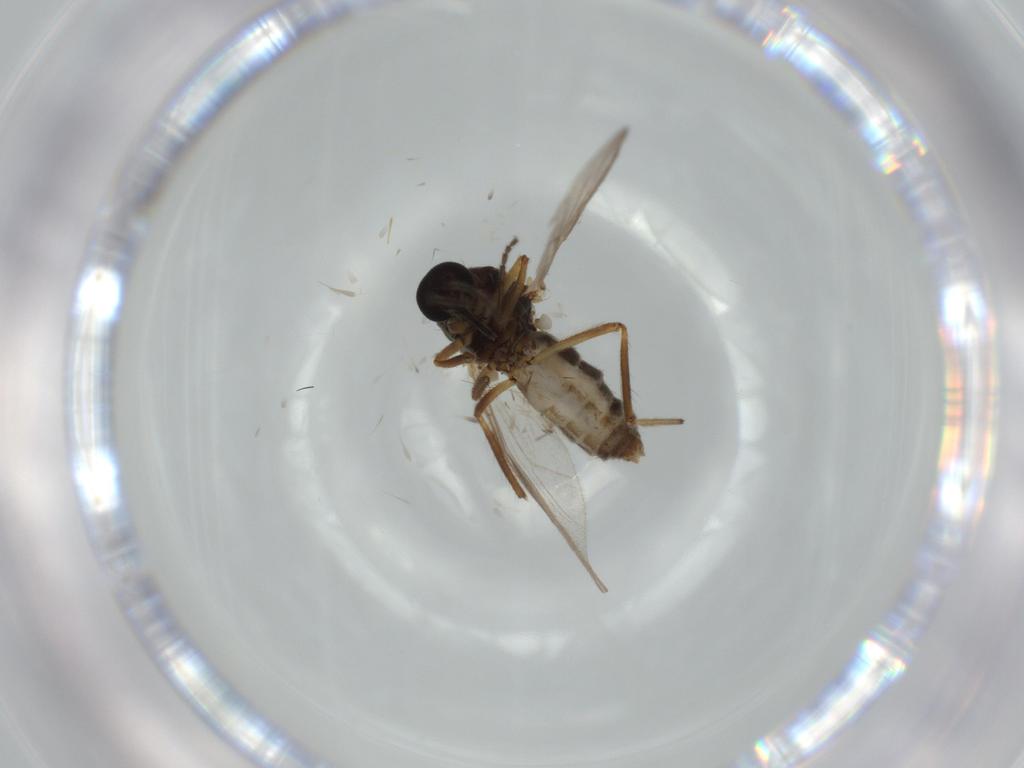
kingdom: Animalia
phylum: Arthropoda
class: Insecta
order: Diptera
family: Ceratopogonidae
